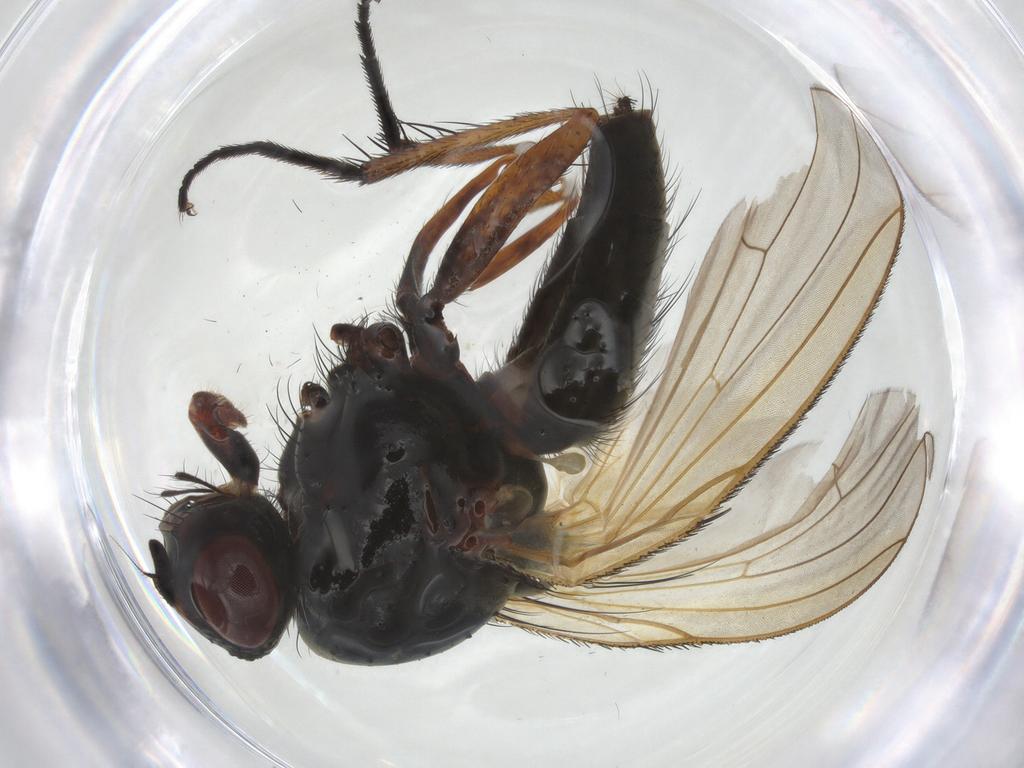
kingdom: Animalia
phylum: Arthropoda
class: Insecta
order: Diptera
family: Anthomyiidae
